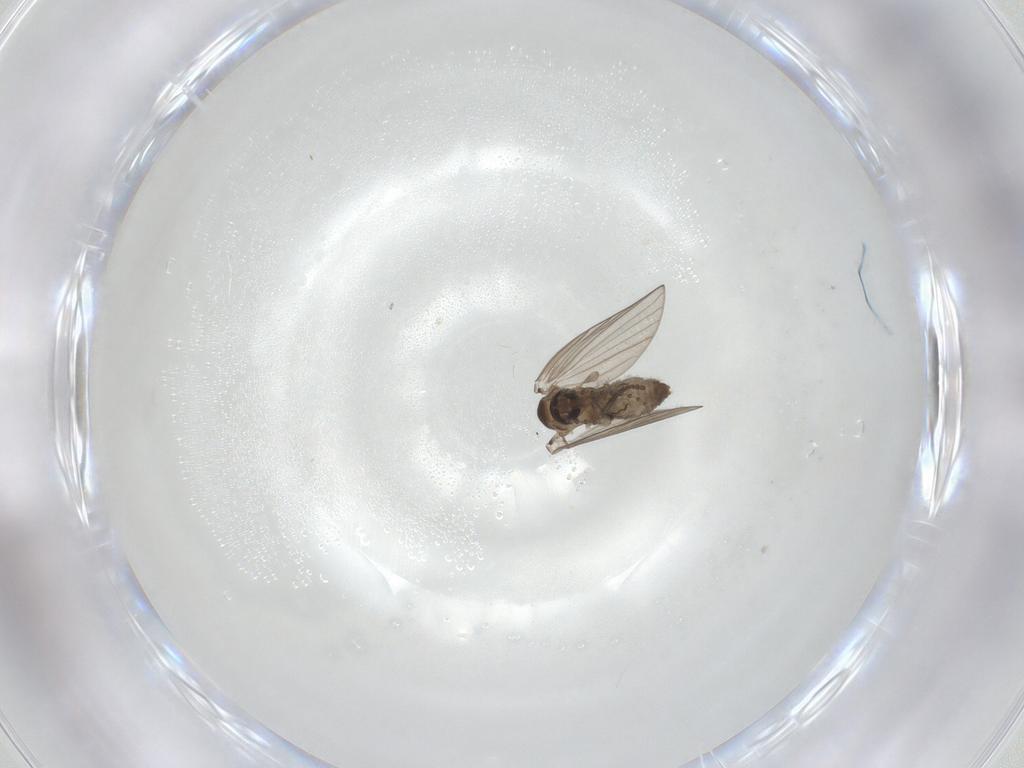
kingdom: Animalia
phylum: Arthropoda
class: Insecta
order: Diptera
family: Psychodidae
